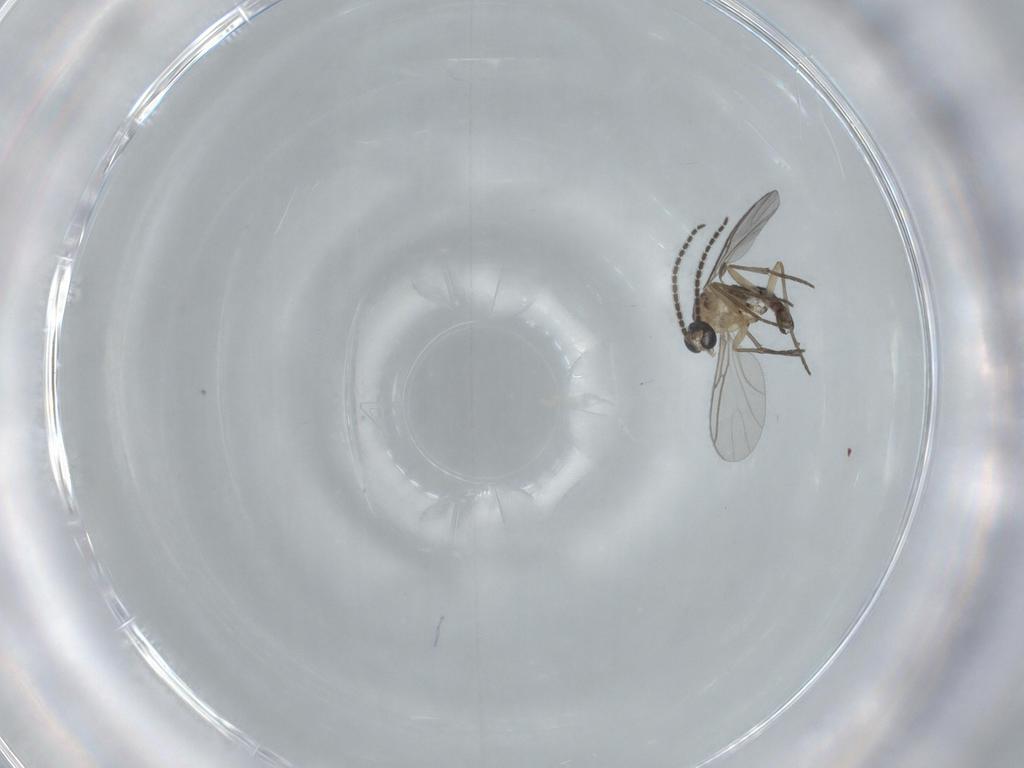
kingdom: Animalia
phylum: Arthropoda
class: Insecta
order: Diptera
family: Sciaridae
